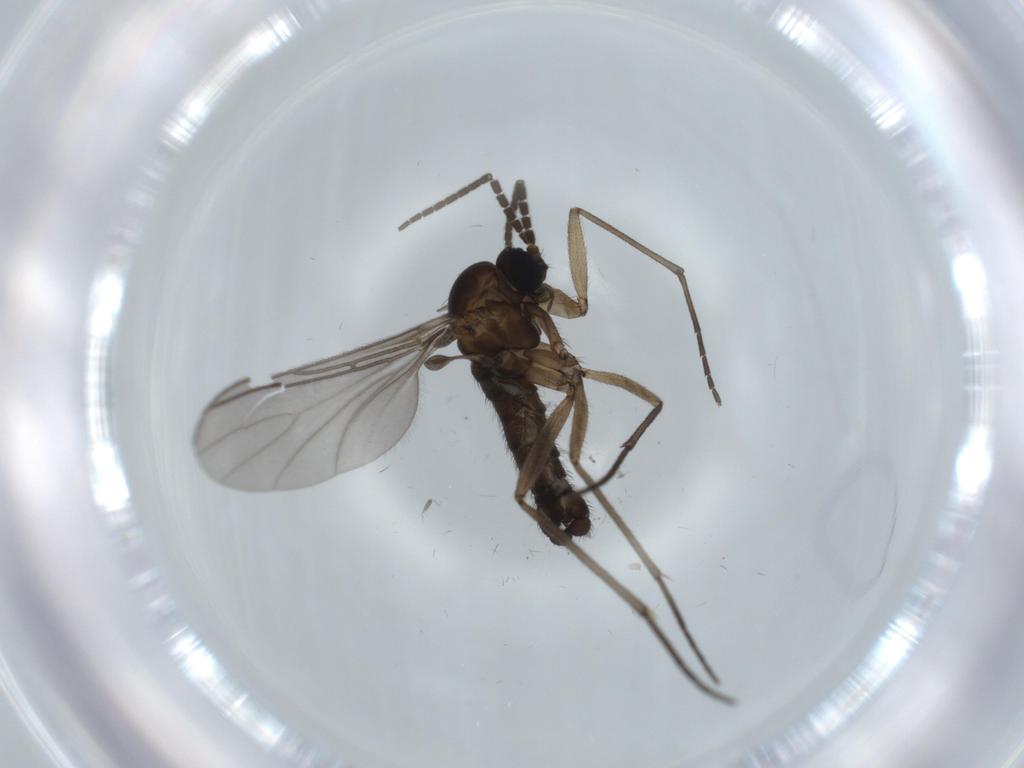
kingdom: Animalia
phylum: Arthropoda
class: Insecta
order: Diptera
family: Sciaridae
